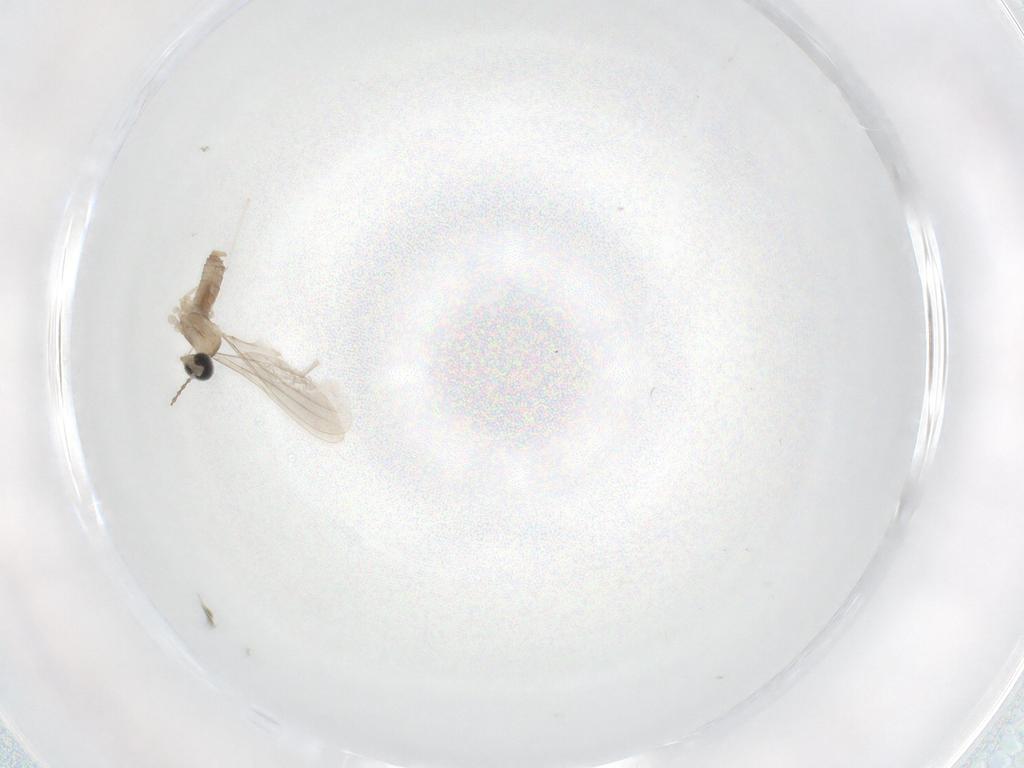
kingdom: Animalia
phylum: Arthropoda
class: Insecta
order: Diptera
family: Cecidomyiidae
